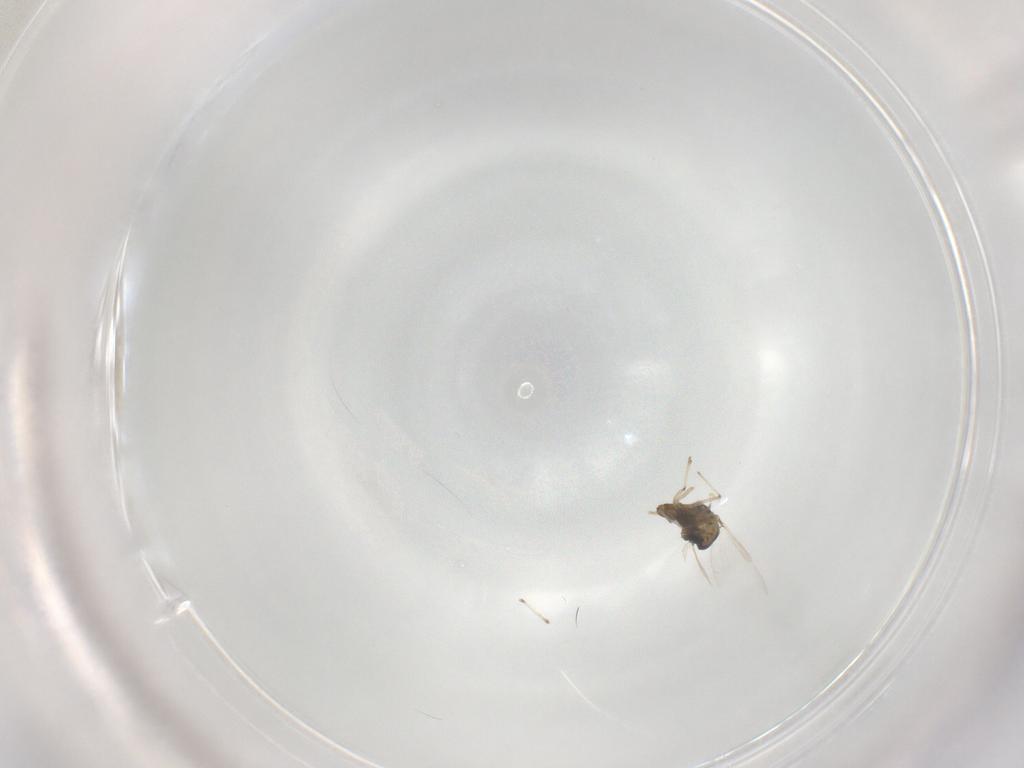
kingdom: Animalia
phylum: Arthropoda
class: Insecta
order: Diptera
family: Chironomidae
